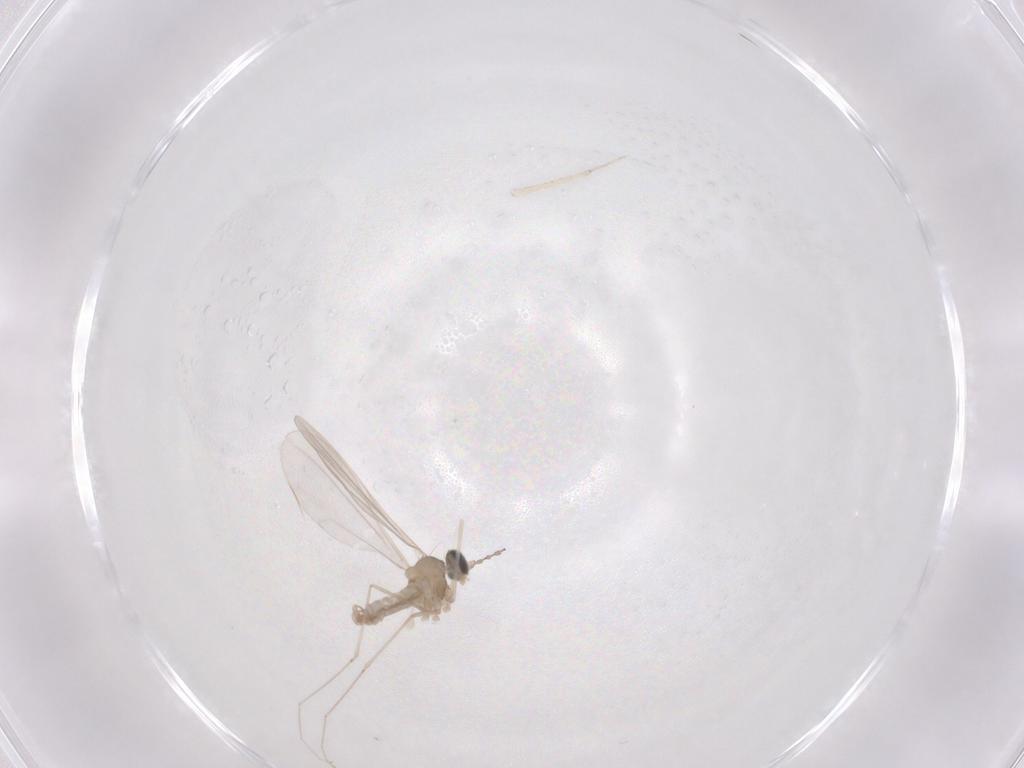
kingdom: Animalia
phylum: Arthropoda
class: Insecta
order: Diptera
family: Cecidomyiidae
